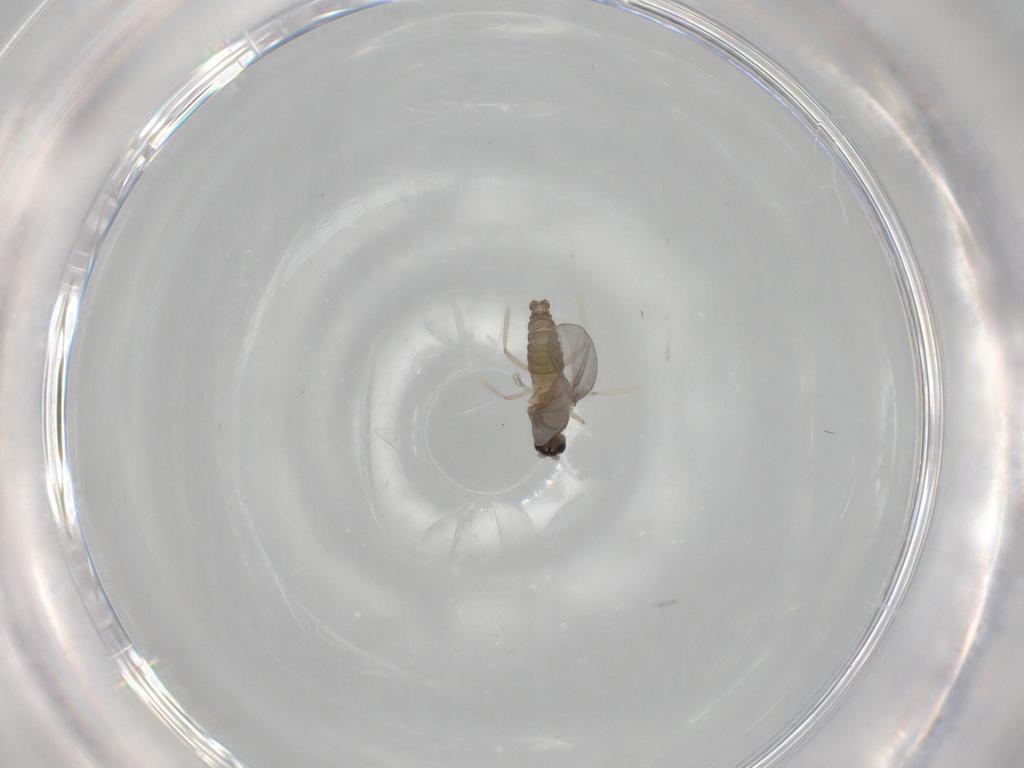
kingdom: Animalia
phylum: Arthropoda
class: Insecta
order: Diptera
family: Cecidomyiidae
